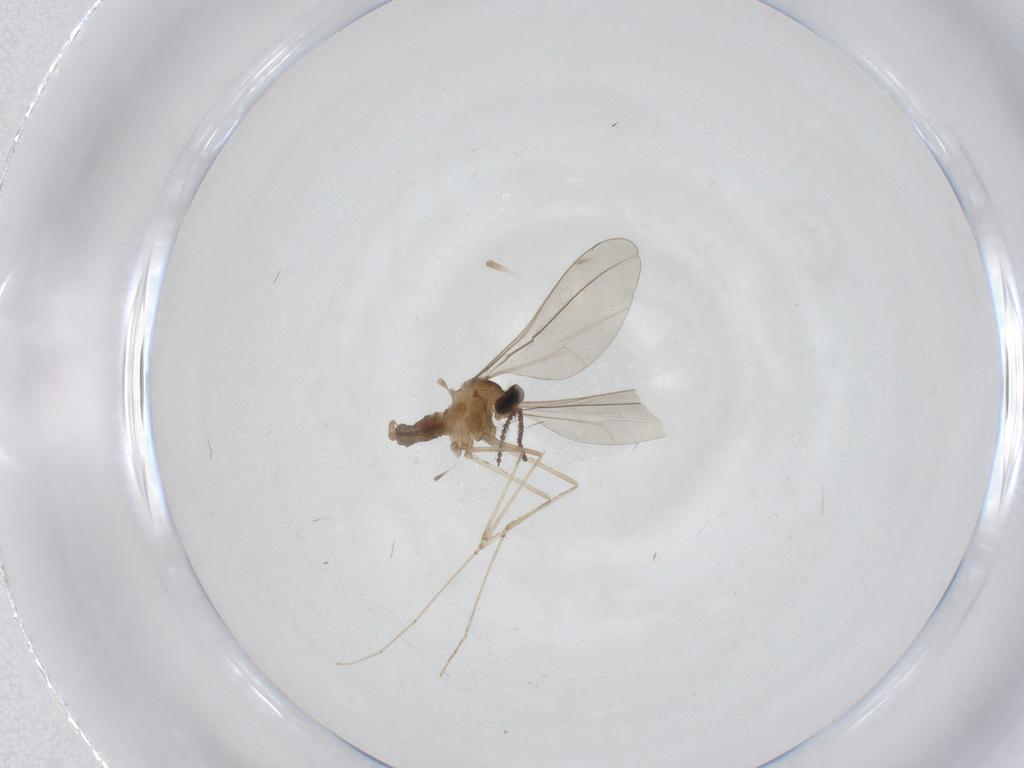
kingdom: Animalia
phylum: Arthropoda
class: Insecta
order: Diptera
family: Cecidomyiidae
